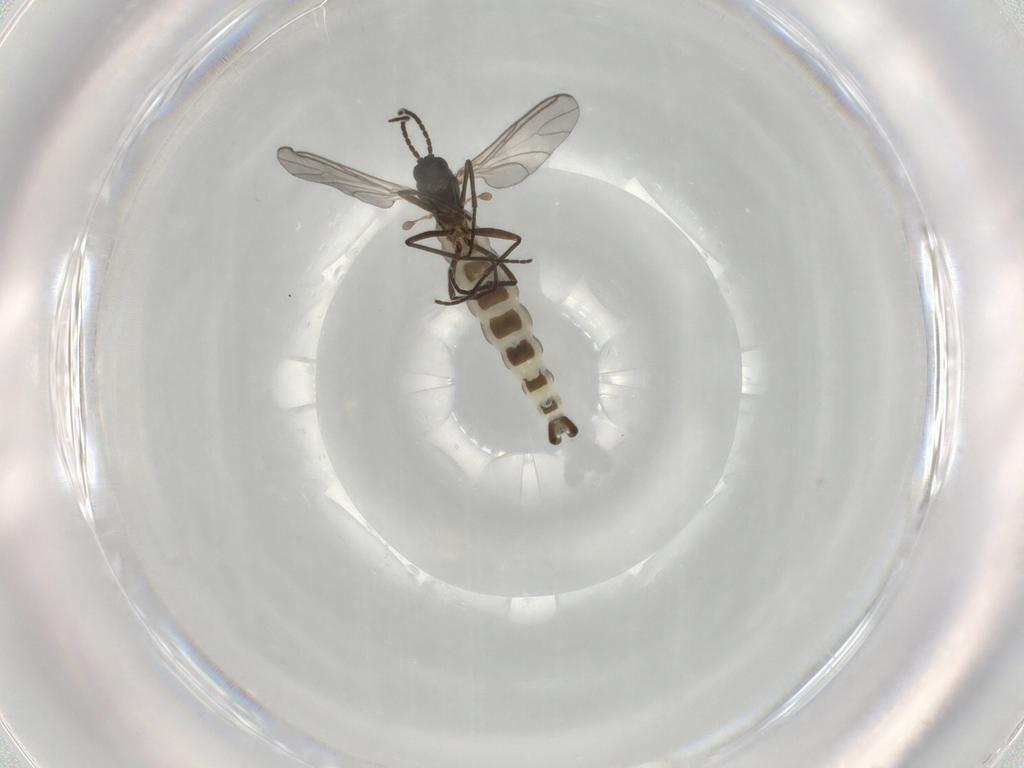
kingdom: Animalia
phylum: Arthropoda
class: Insecta
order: Diptera
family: Sciaridae
